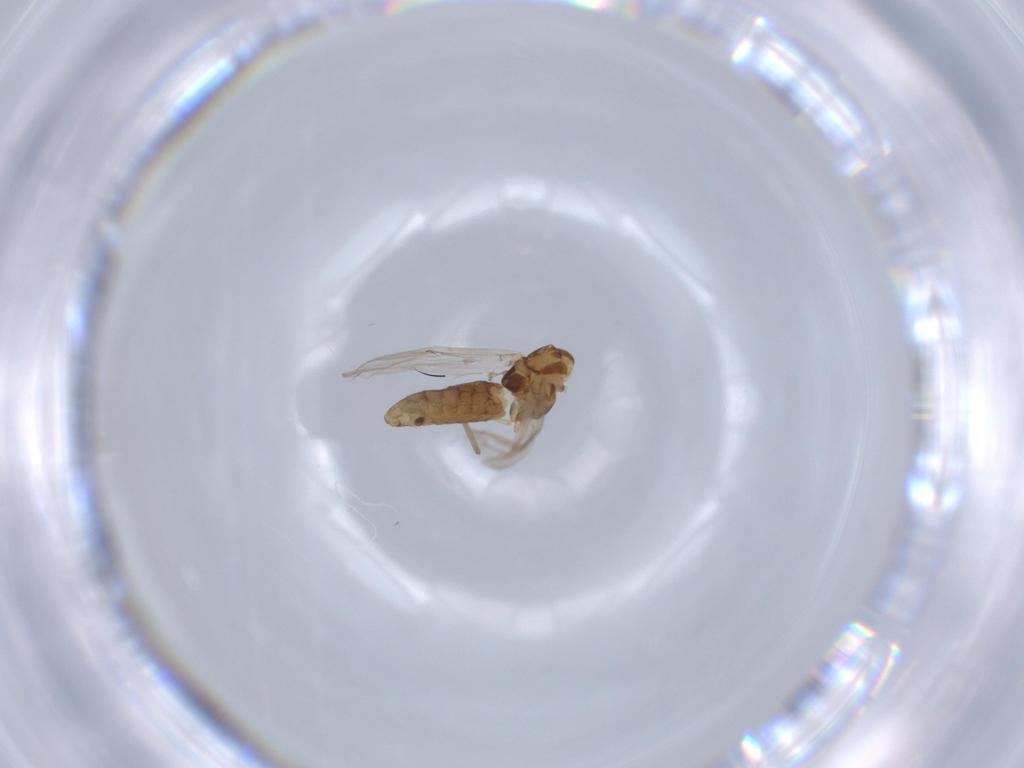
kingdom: Animalia
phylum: Arthropoda
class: Insecta
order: Diptera
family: Chironomidae
